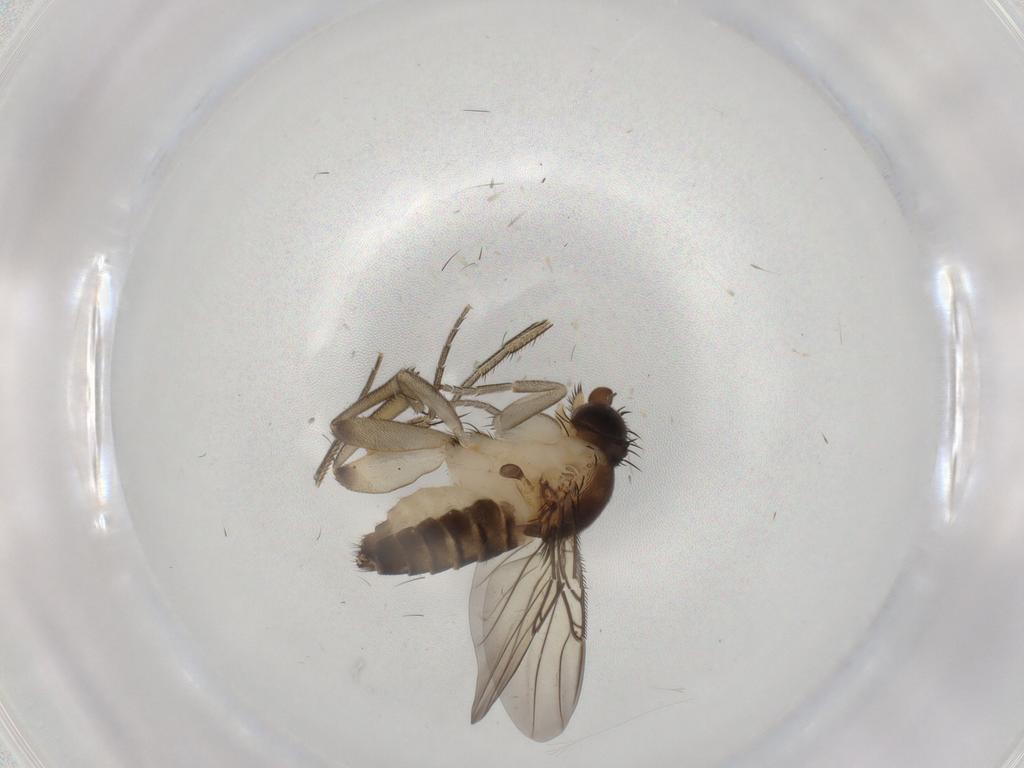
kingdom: Animalia
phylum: Arthropoda
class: Insecta
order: Diptera
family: Phoridae
